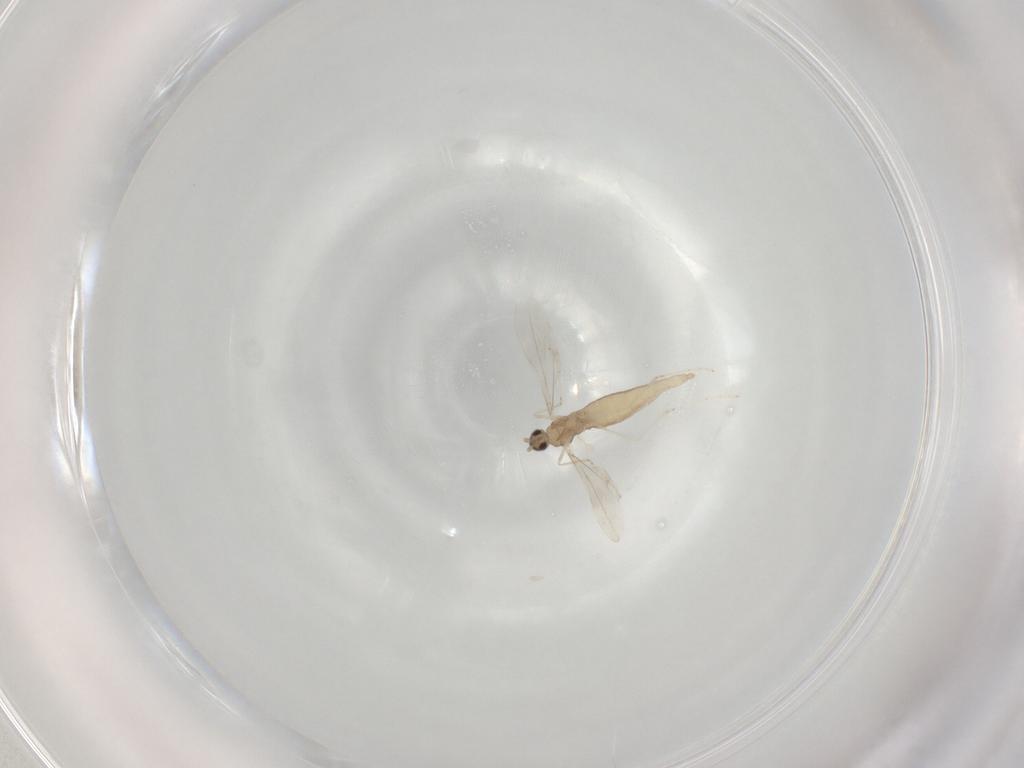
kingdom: Animalia
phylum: Arthropoda
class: Insecta
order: Diptera
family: Cecidomyiidae
